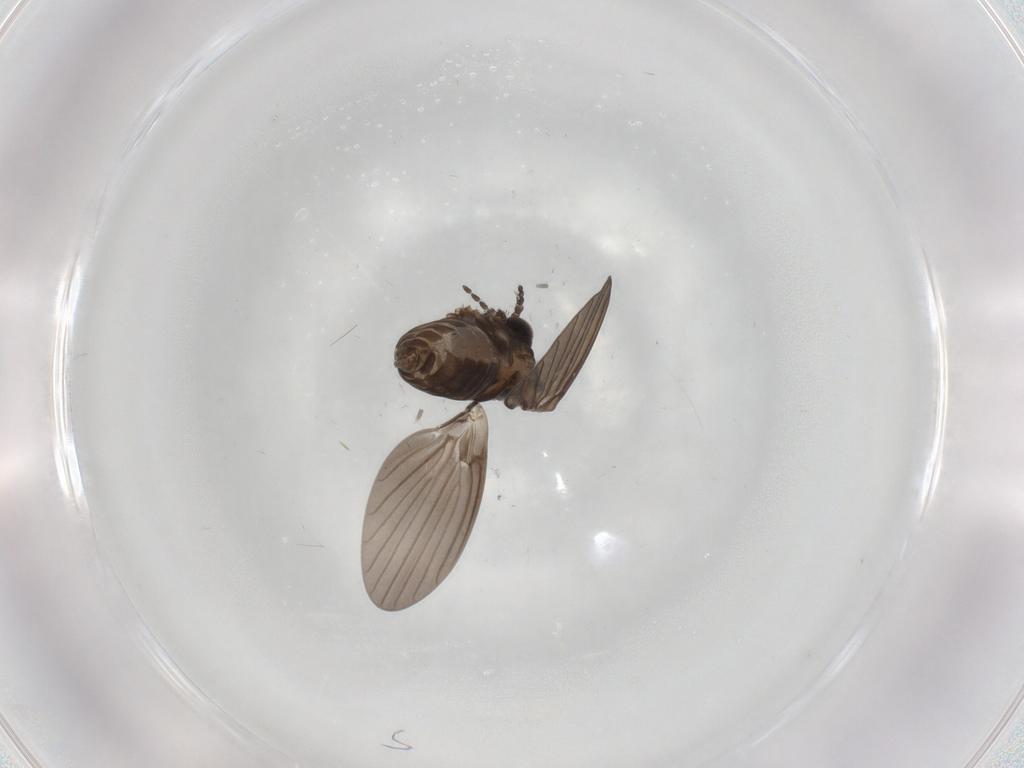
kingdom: Animalia
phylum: Arthropoda
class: Insecta
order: Diptera
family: Psychodidae
